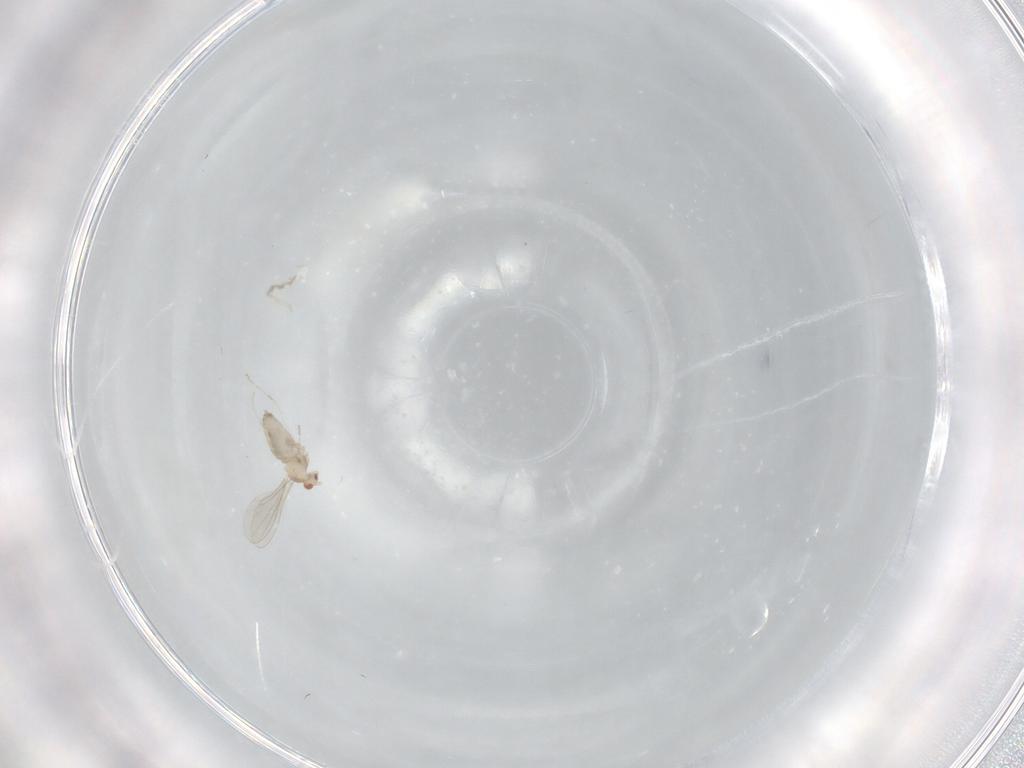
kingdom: Animalia
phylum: Arthropoda
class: Insecta
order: Diptera
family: Cecidomyiidae
